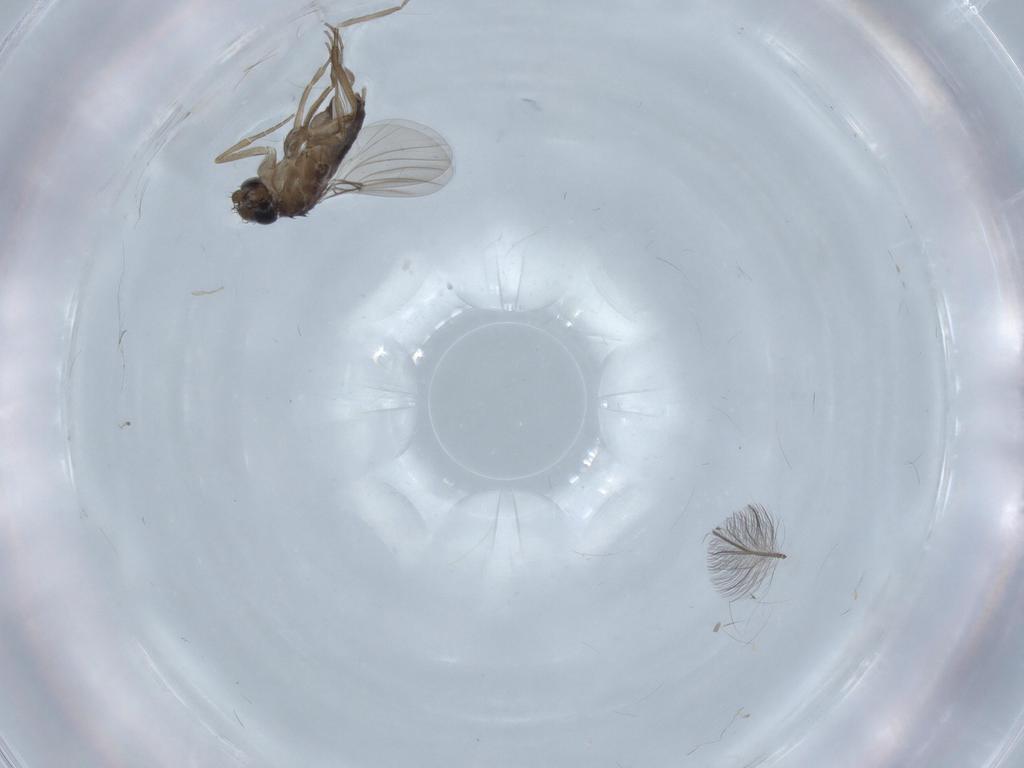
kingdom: Animalia
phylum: Arthropoda
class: Insecta
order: Diptera
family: Phoridae
